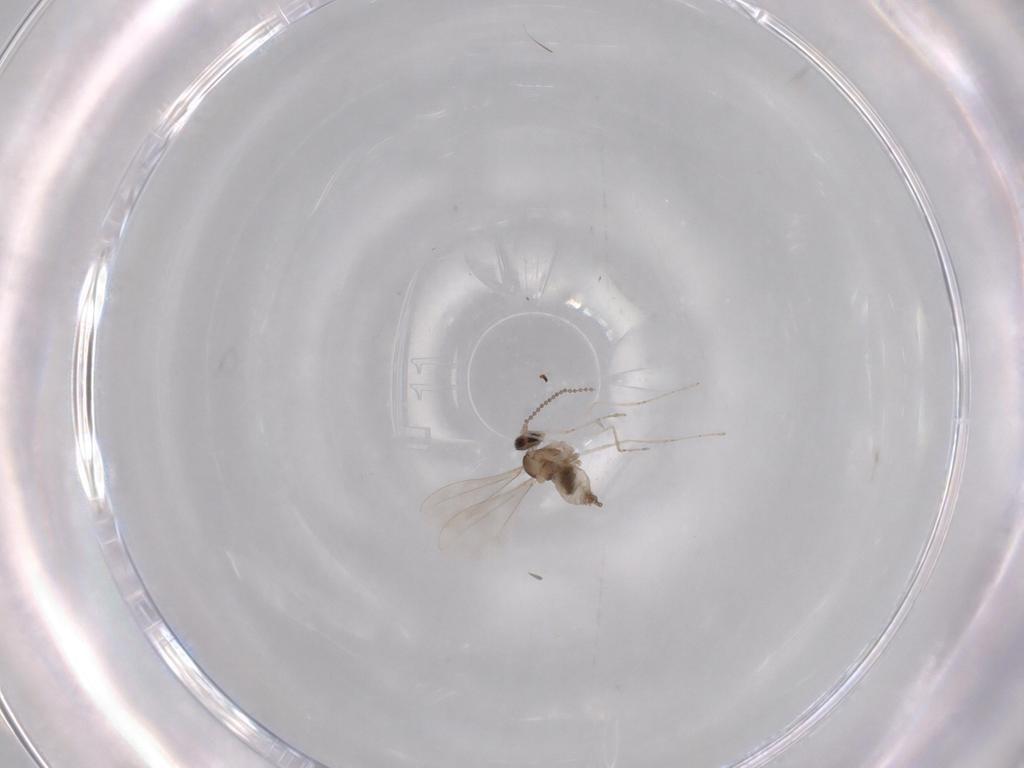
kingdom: Animalia
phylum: Arthropoda
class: Insecta
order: Diptera
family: Cecidomyiidae
